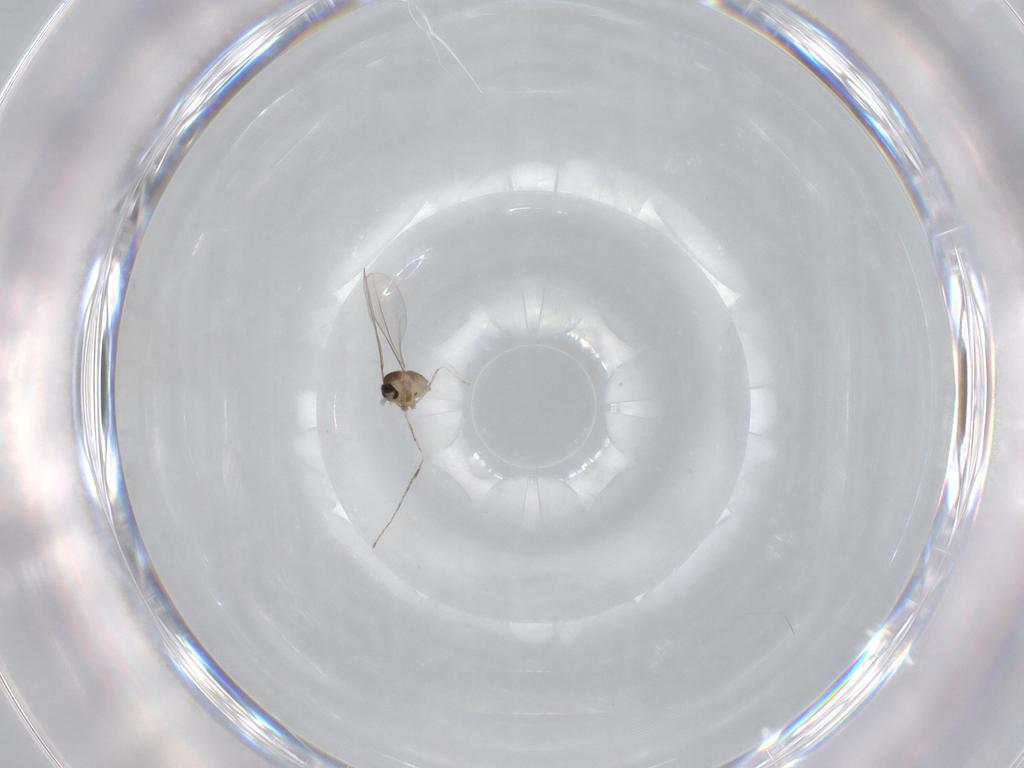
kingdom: Animalia
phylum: Arthropoda
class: Insecta
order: Diptera
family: Cecidomyiidae
